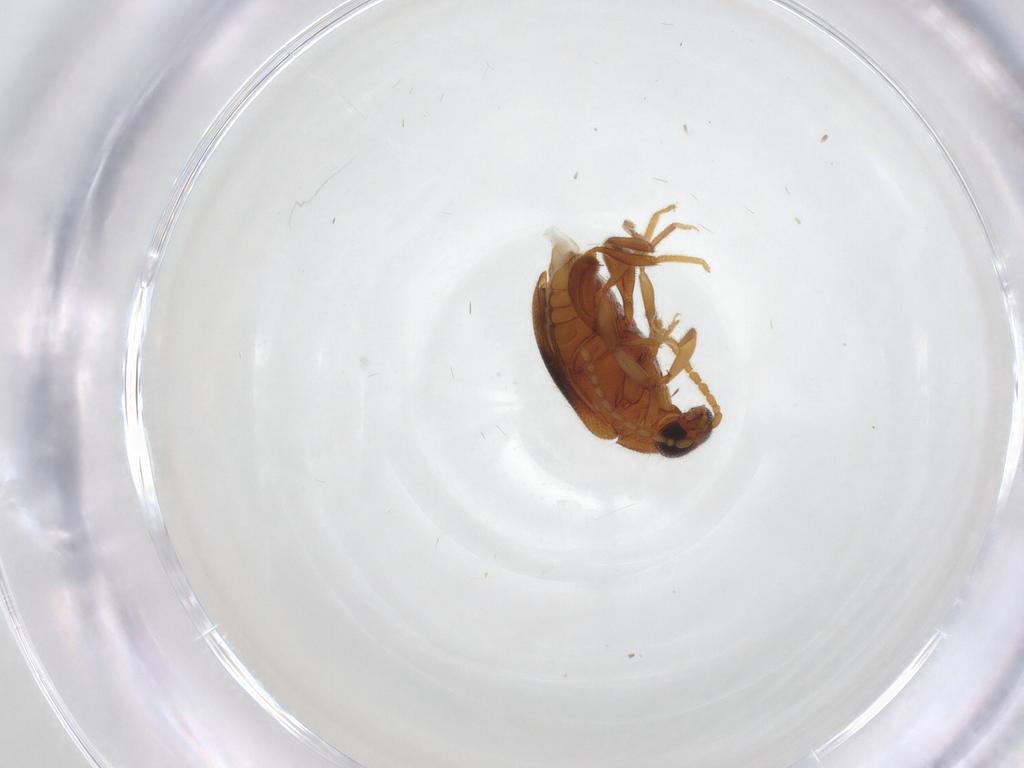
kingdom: Animalia
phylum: Arthropoda
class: Insecta
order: Coleoptera
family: Aderidae
